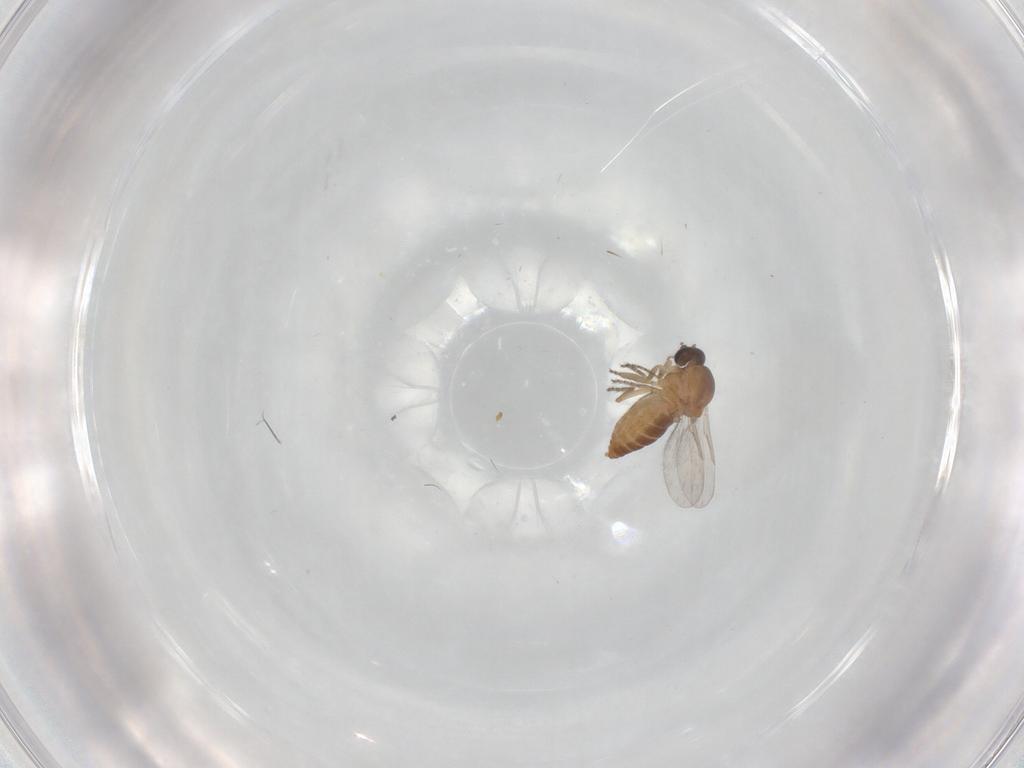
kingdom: Animalia
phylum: Arthropoda
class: Insecta
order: Diptera
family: Ceratopogonidae
